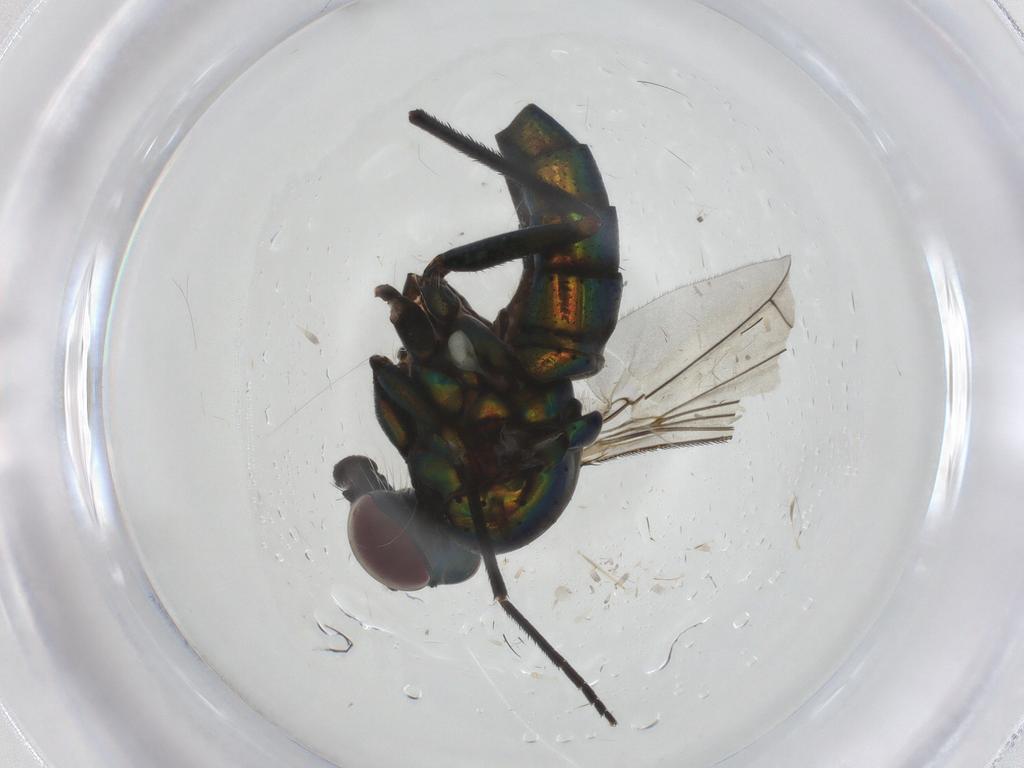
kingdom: Animalia
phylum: Arthropoda
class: Insecta
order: Diptera
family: Dolichopodidae
